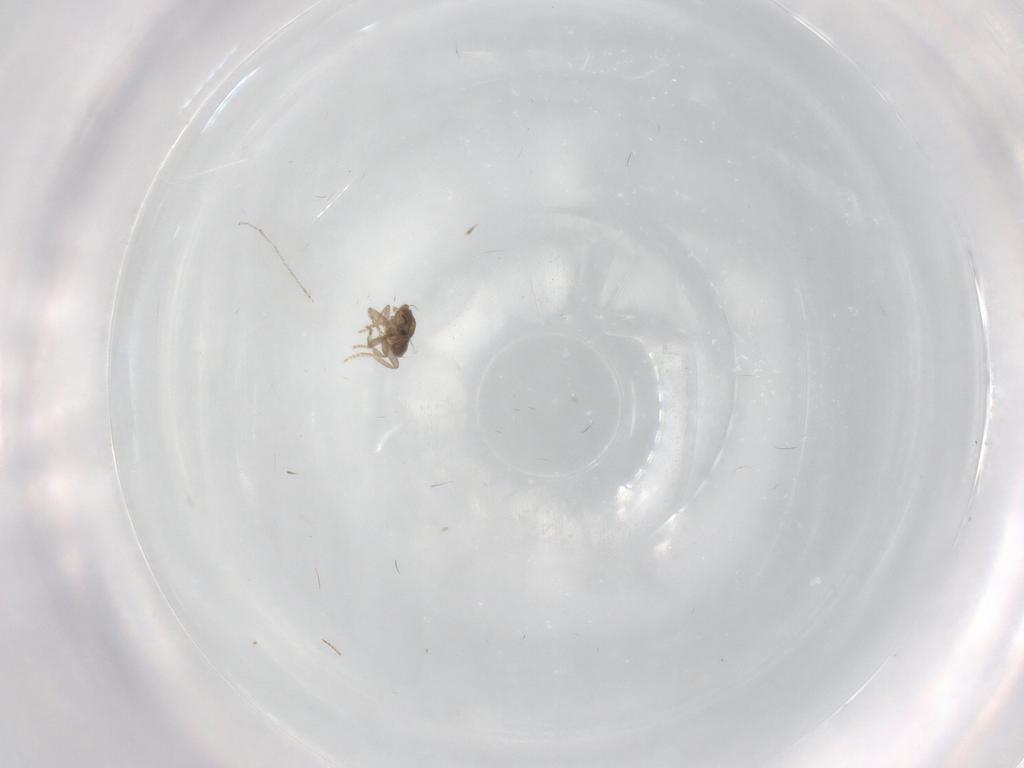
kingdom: Animalia
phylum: Arthropoda
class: Insecta
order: Diptera
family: Cecidomyiidae
